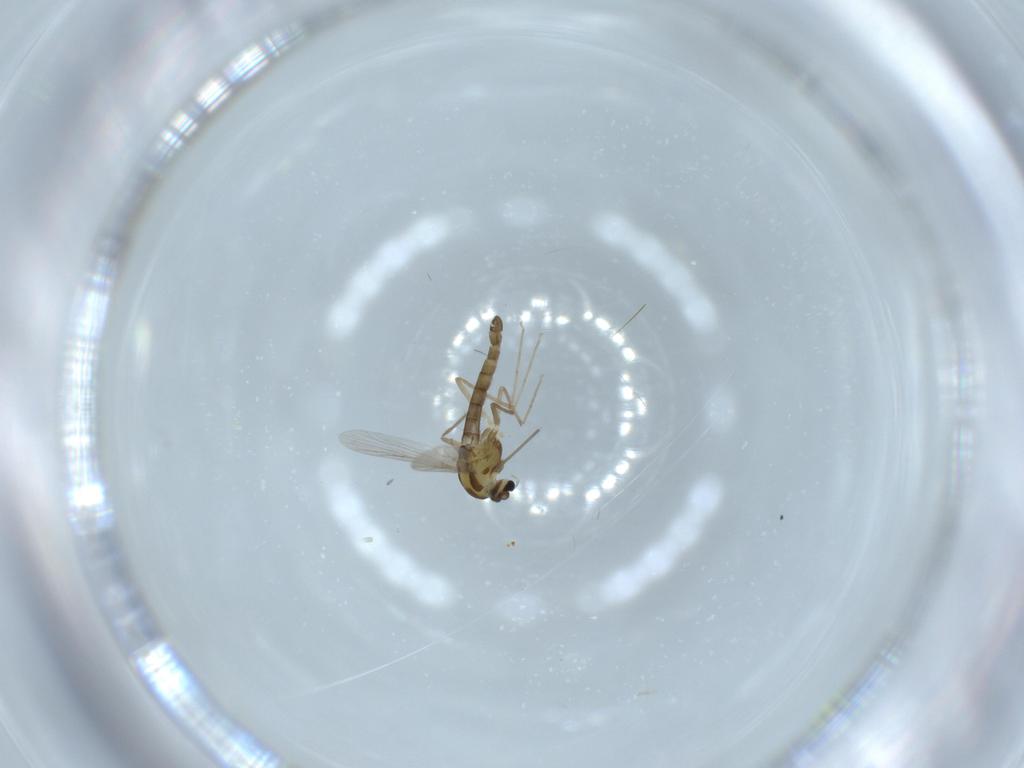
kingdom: Animalia
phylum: Arthropoda
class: Insecta
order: Diptera
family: Chironomidae
